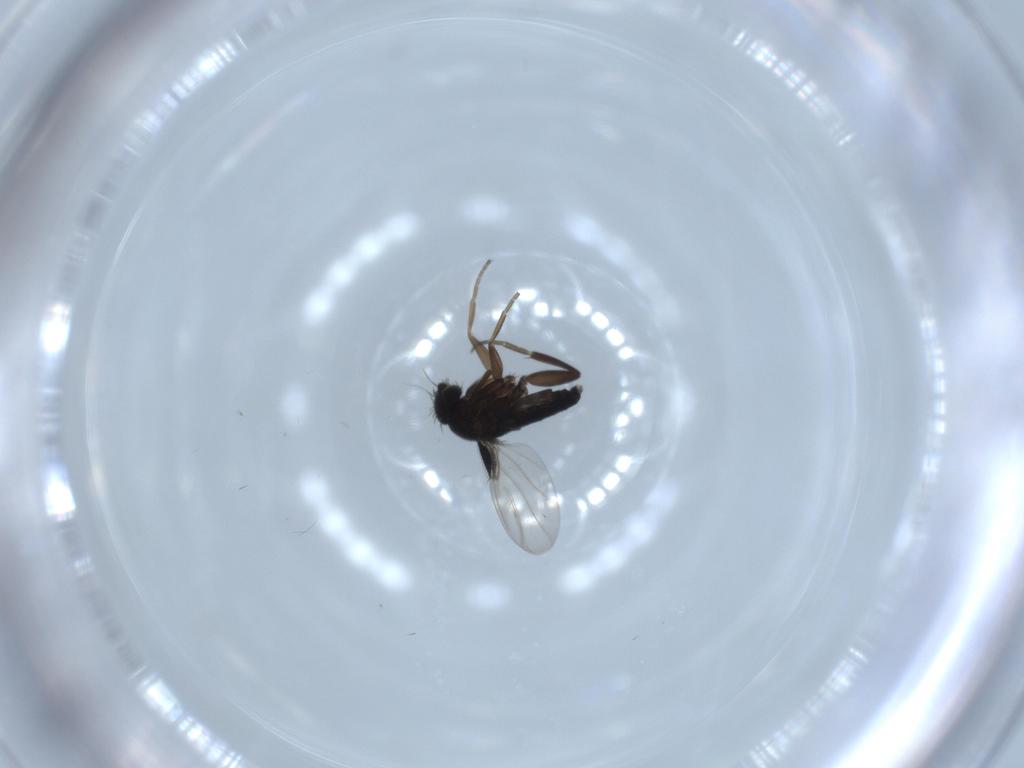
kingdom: Animalia
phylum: Arthropoda
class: Insecta
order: Diptera
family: Phoridae
